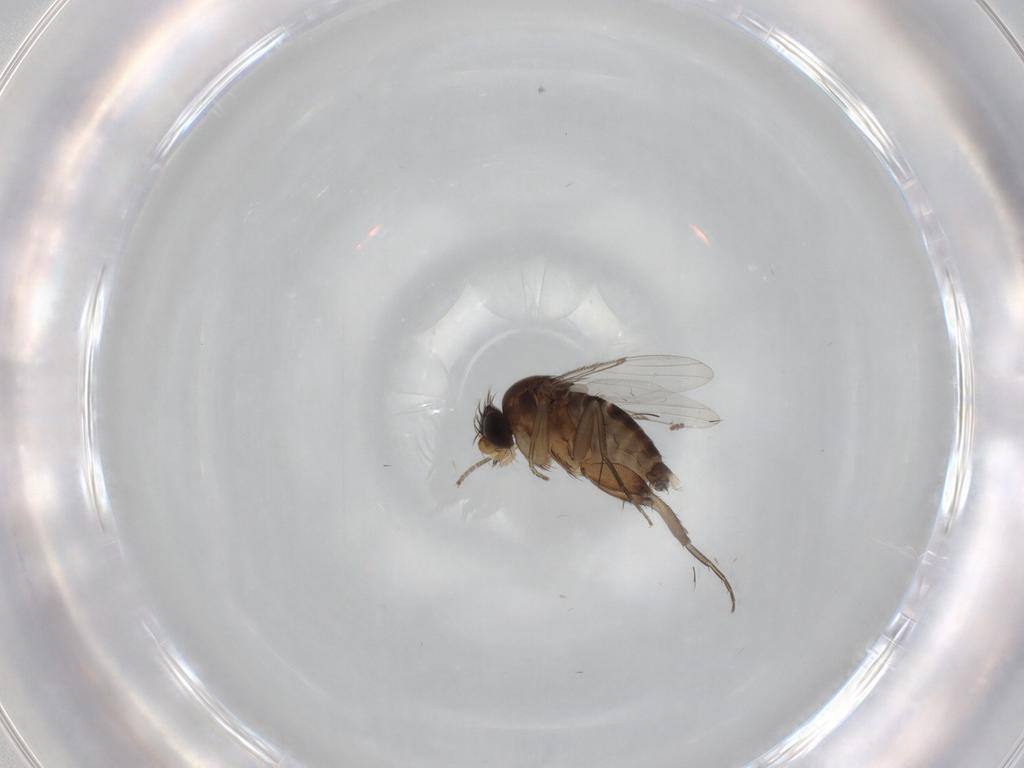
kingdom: Animalia
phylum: Arthropoda
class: Insecta
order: Diptera
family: Phoridae
